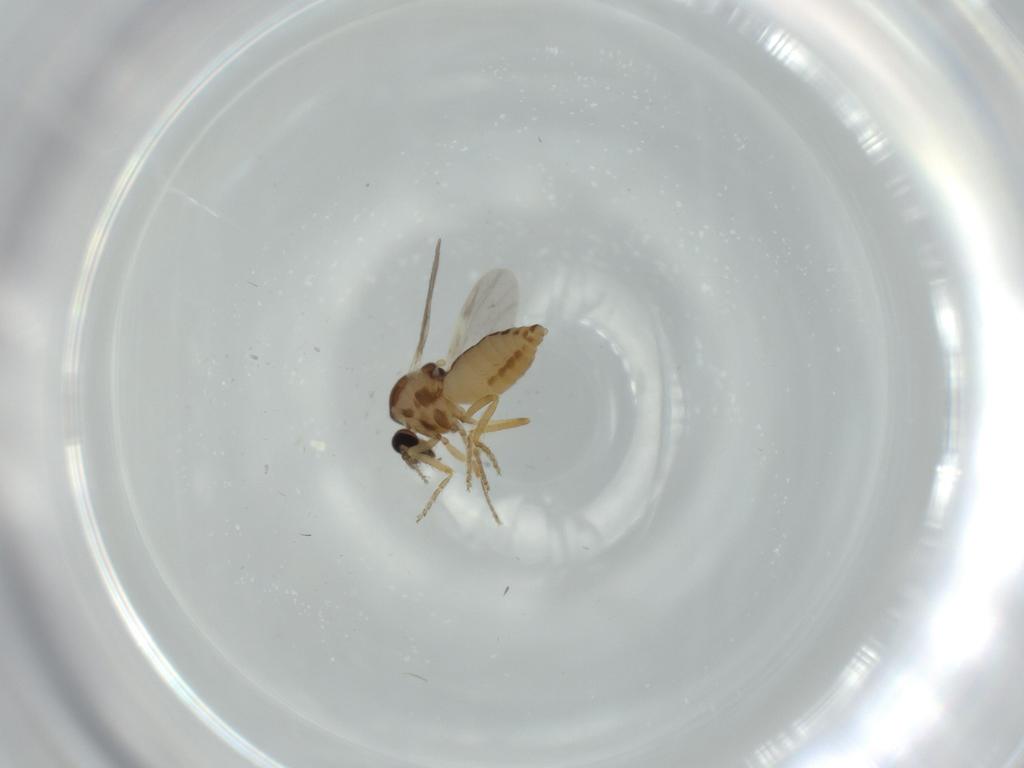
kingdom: Animalia
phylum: Arthropoda
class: Insecta
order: Diptera
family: Ceratopogonidae
